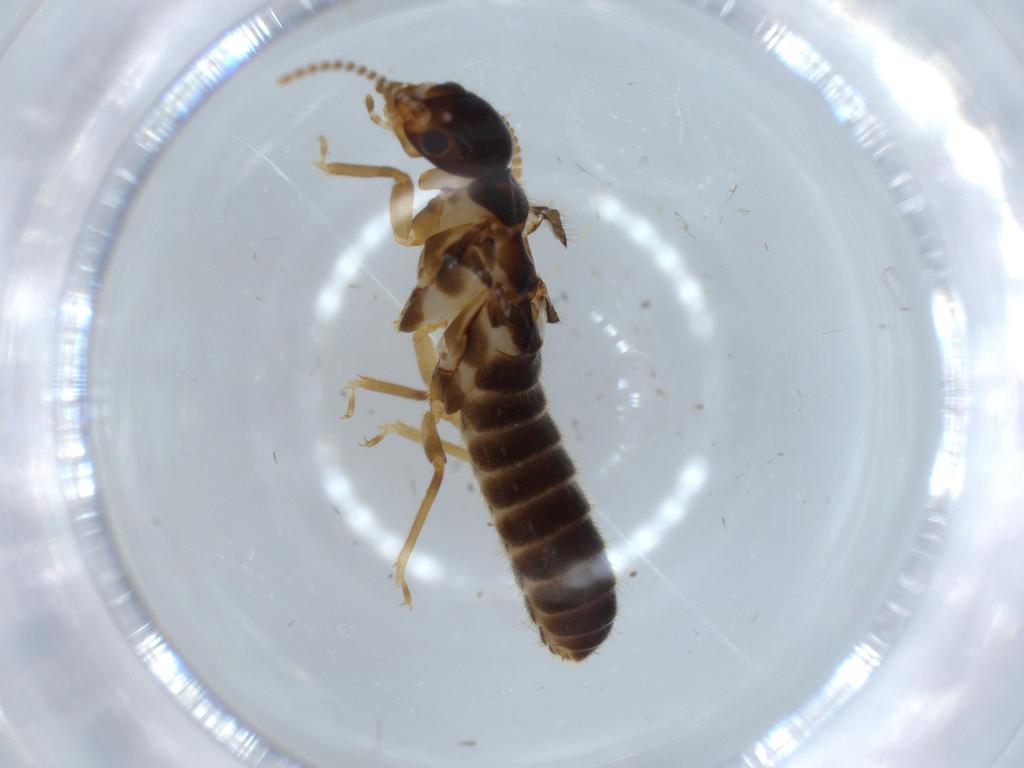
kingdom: Animalia
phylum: Arthropoda
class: Insecta
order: Blattodea
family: Termitidae
